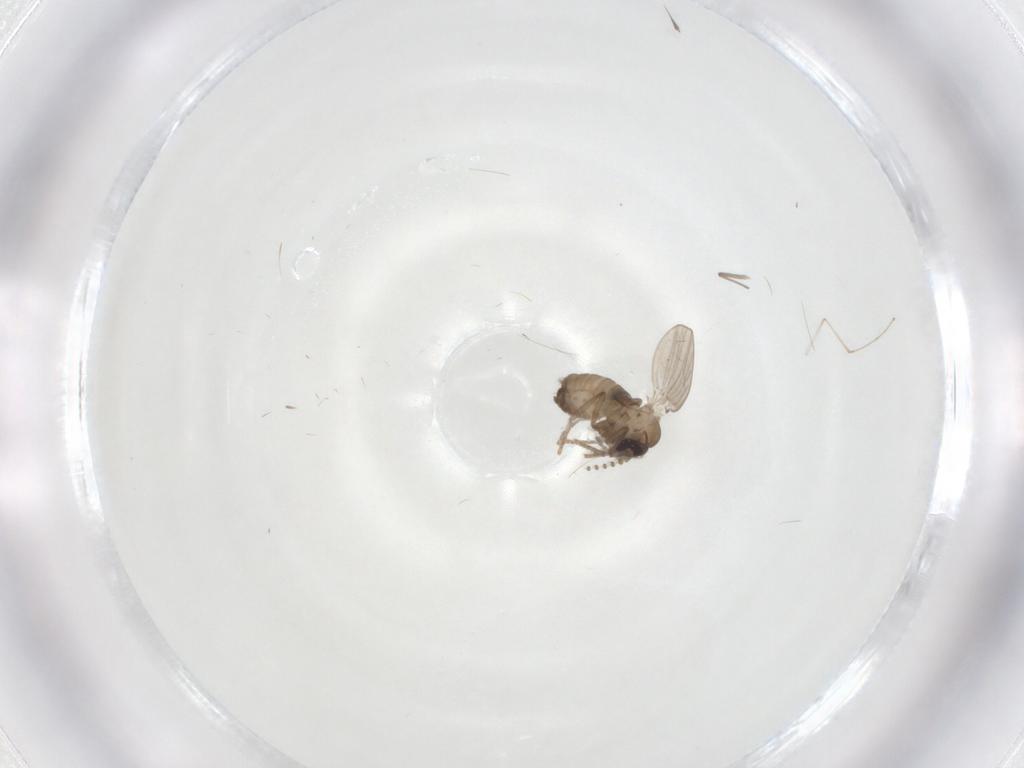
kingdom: Animalia
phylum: Arthropoda
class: Insecta
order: Diptera
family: Psychodidae
